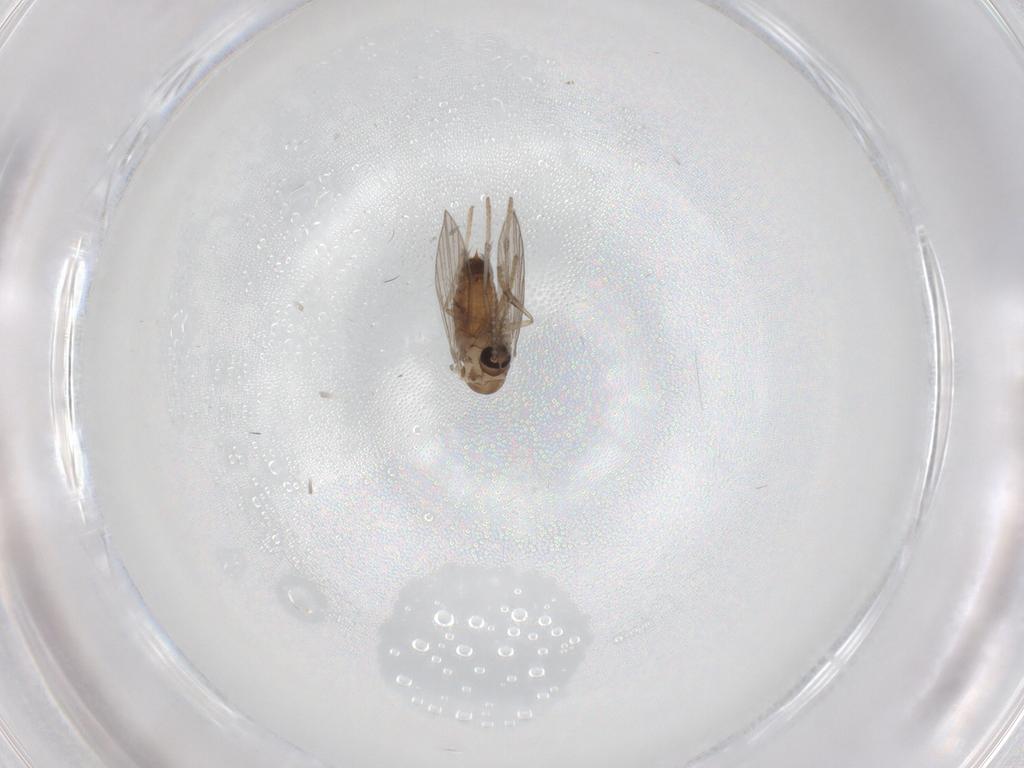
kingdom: Animalia
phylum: Arthropoda
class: Insecta
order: Diptera
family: Psychodidae
